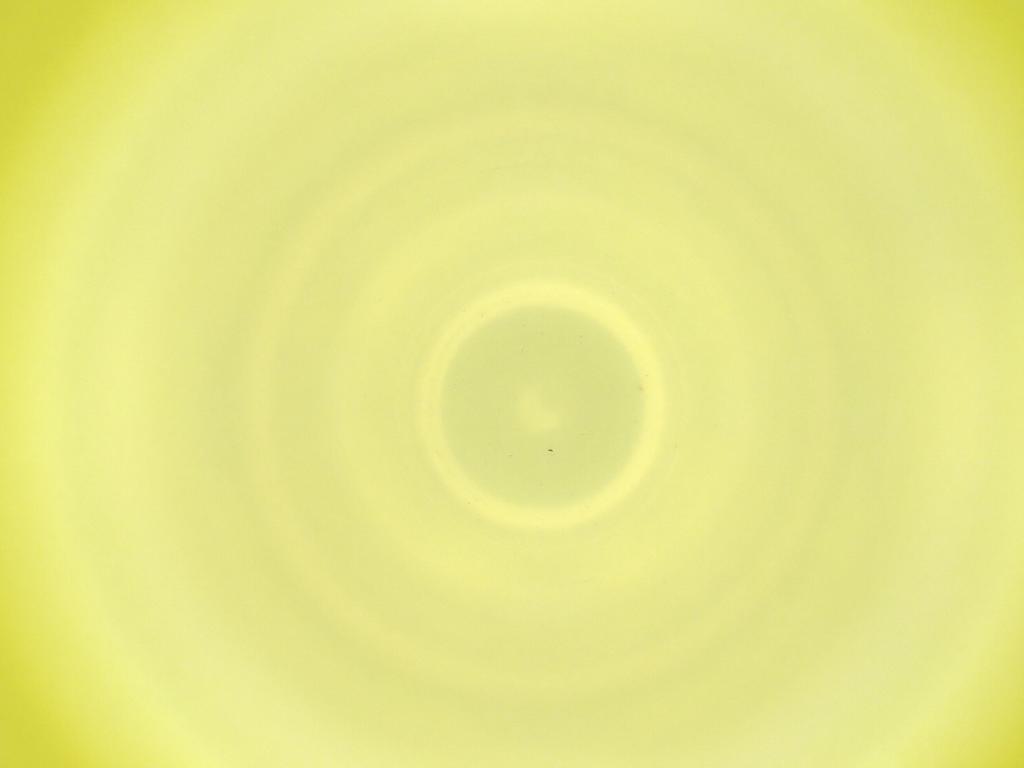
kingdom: Animalia
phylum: Arthropoda
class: Insecta
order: Diptera
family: Cecidomyiidae
